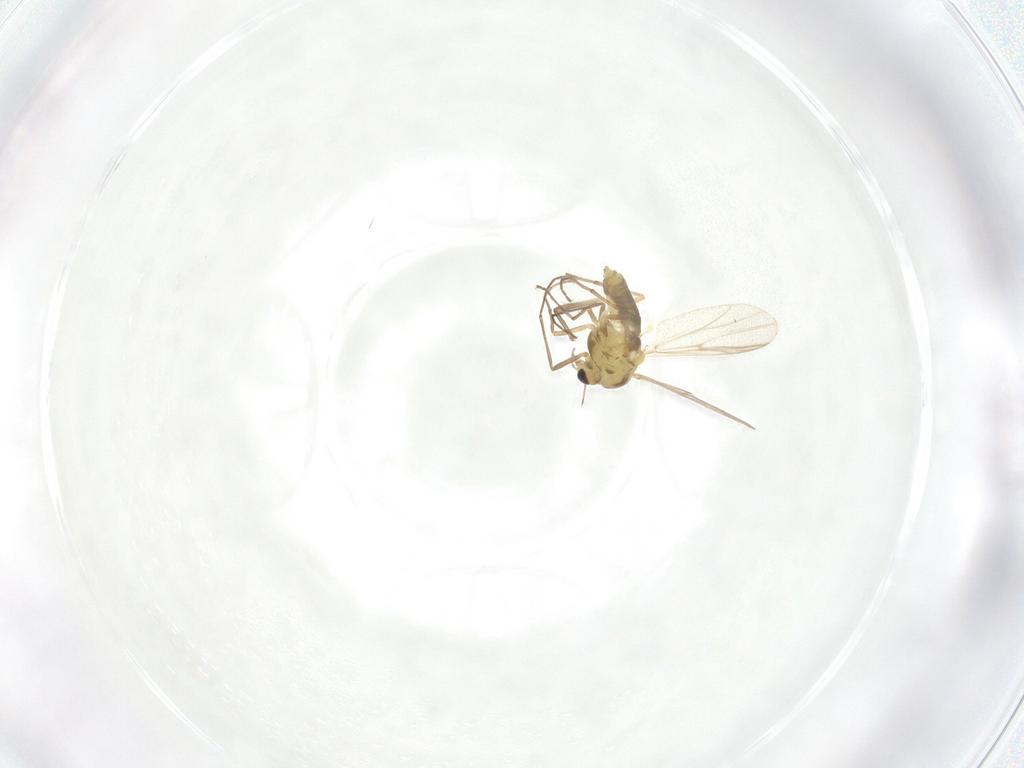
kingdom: Animalia
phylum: Arthropoda
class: Insecta
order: Diptera
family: Chironomidae
